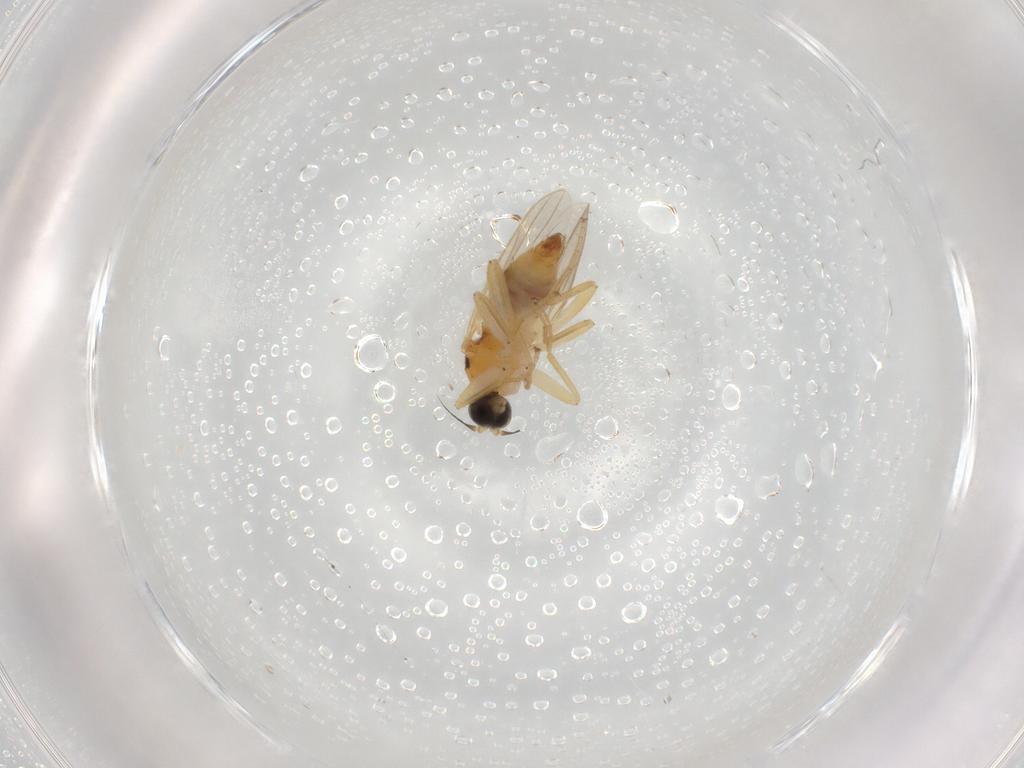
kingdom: Animalia
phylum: Arthropoda
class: Insecta
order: Diptera
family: Hybotidae
